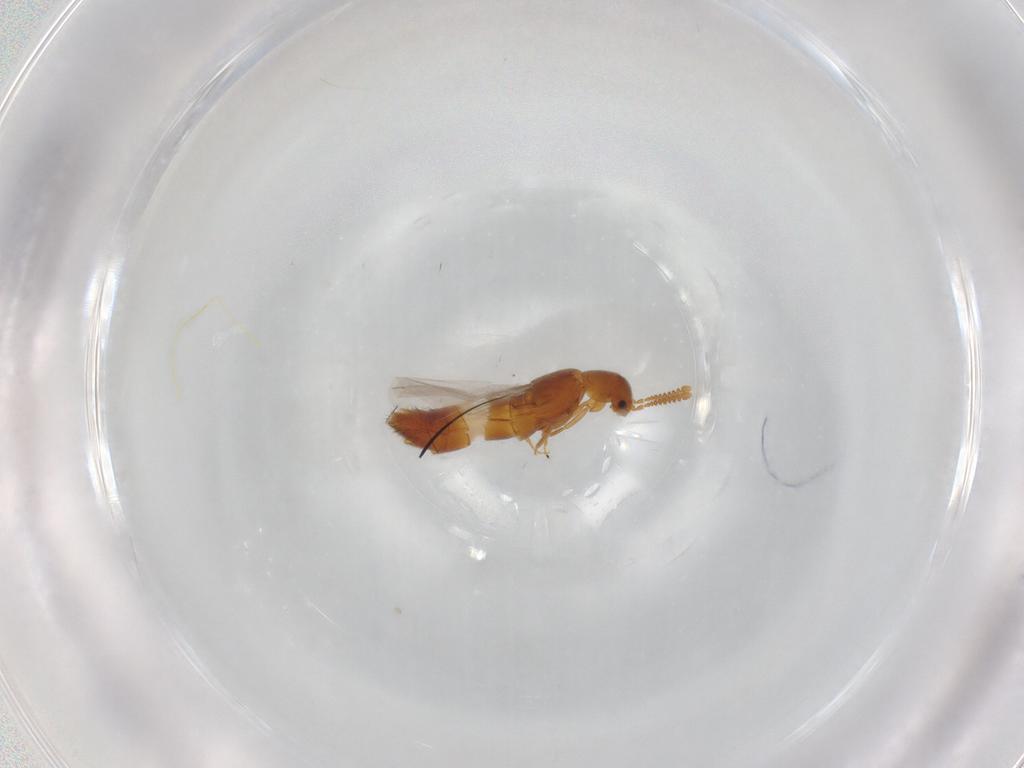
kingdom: Animalia
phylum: Arthropoda
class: Insecta
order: Coleoptera
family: Staphylinidae
